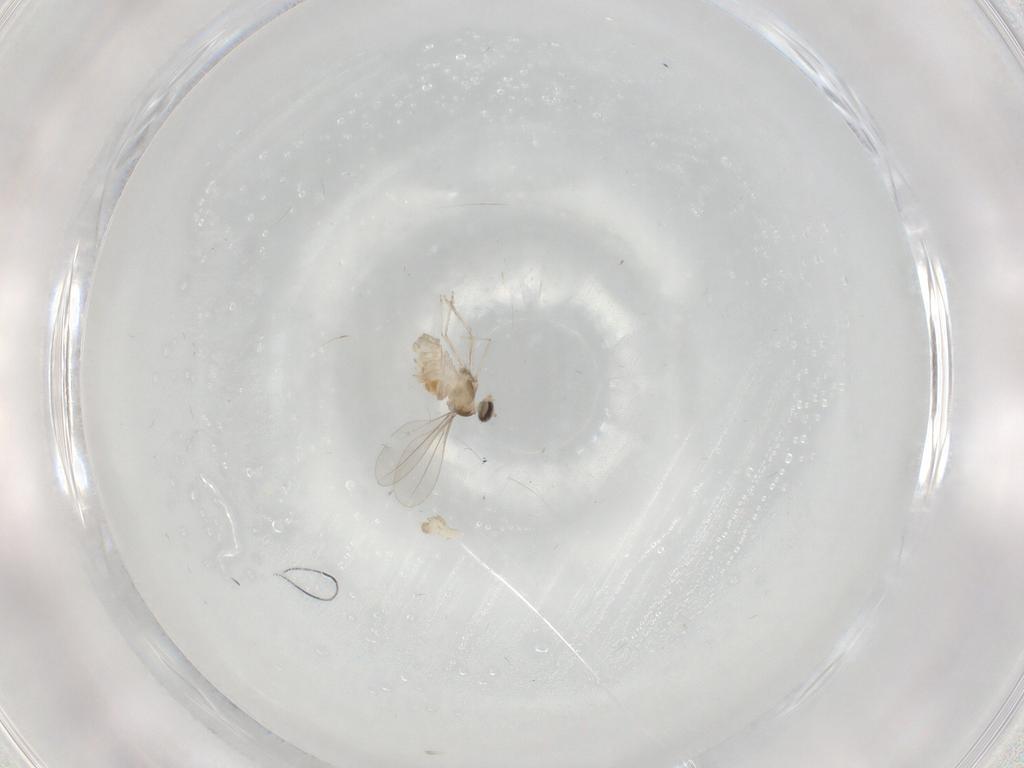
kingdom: Animalia
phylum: Arthropoda
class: Insecta
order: Diptera
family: Cecidomyiidae
